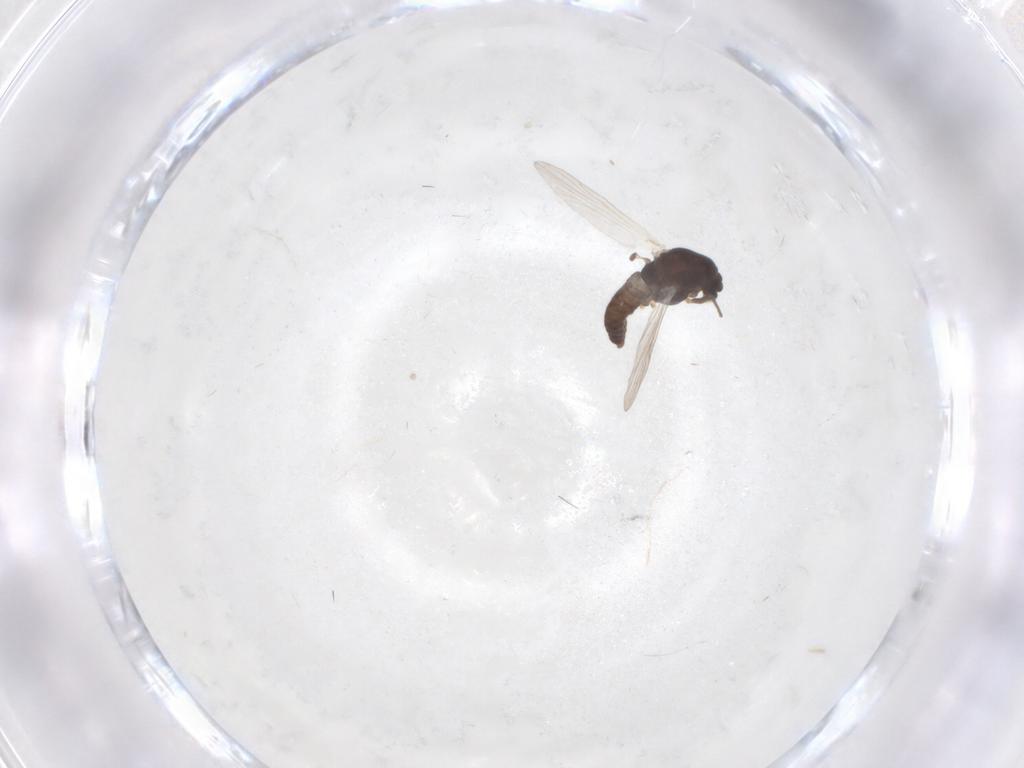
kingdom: Animalia
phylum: Arthropoda
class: Insecta
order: Diptera
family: Chironomidae
